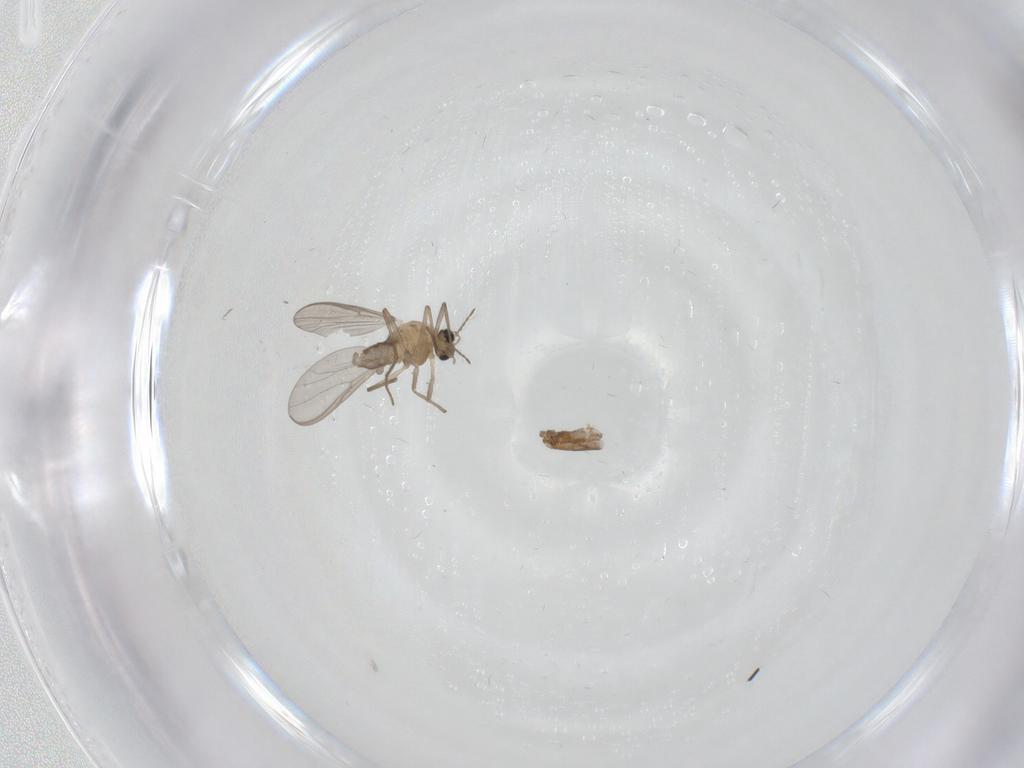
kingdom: Animalia
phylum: Arthropoda
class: Insecta
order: Diptera
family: Chironomidae
